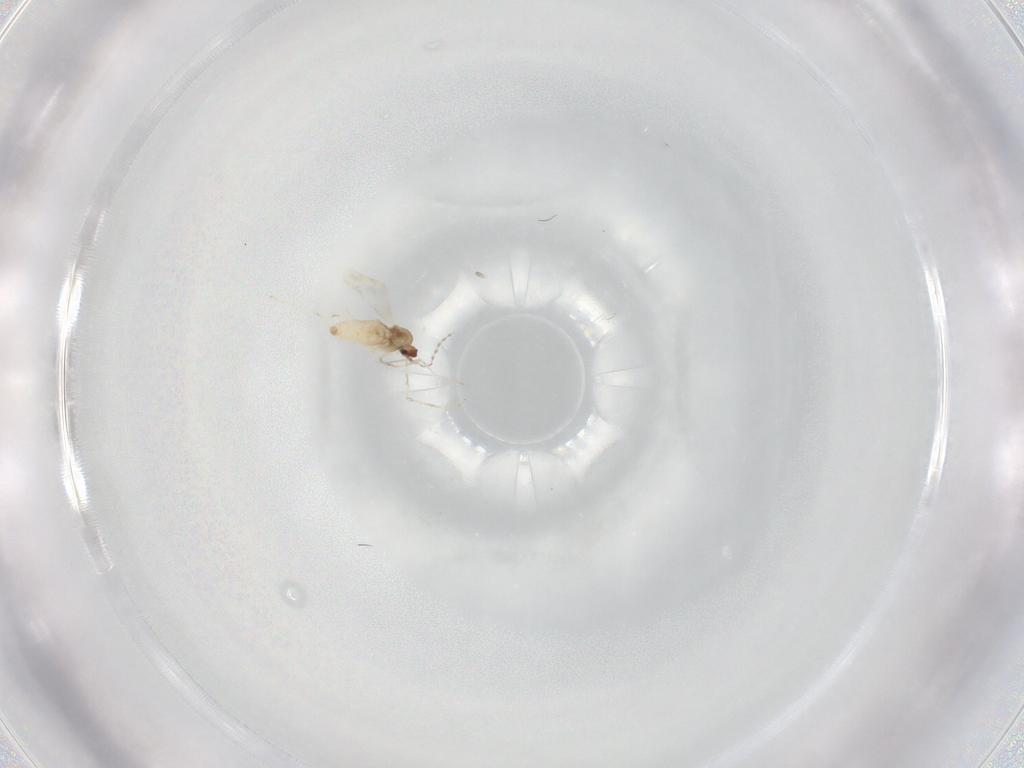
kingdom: Animalia
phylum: Arthropoda
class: Insecta
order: Diptera
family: Cecidomyiidae
